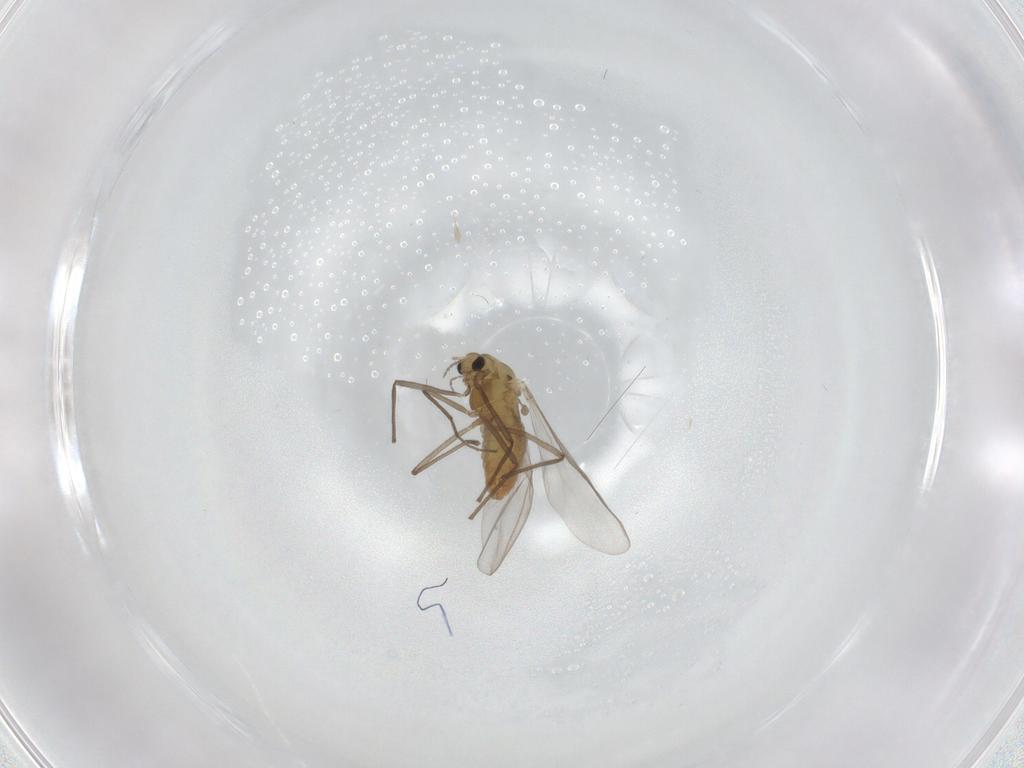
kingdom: Animalia
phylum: Arthropoda
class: Insecta
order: Diptera
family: Chironomidae
